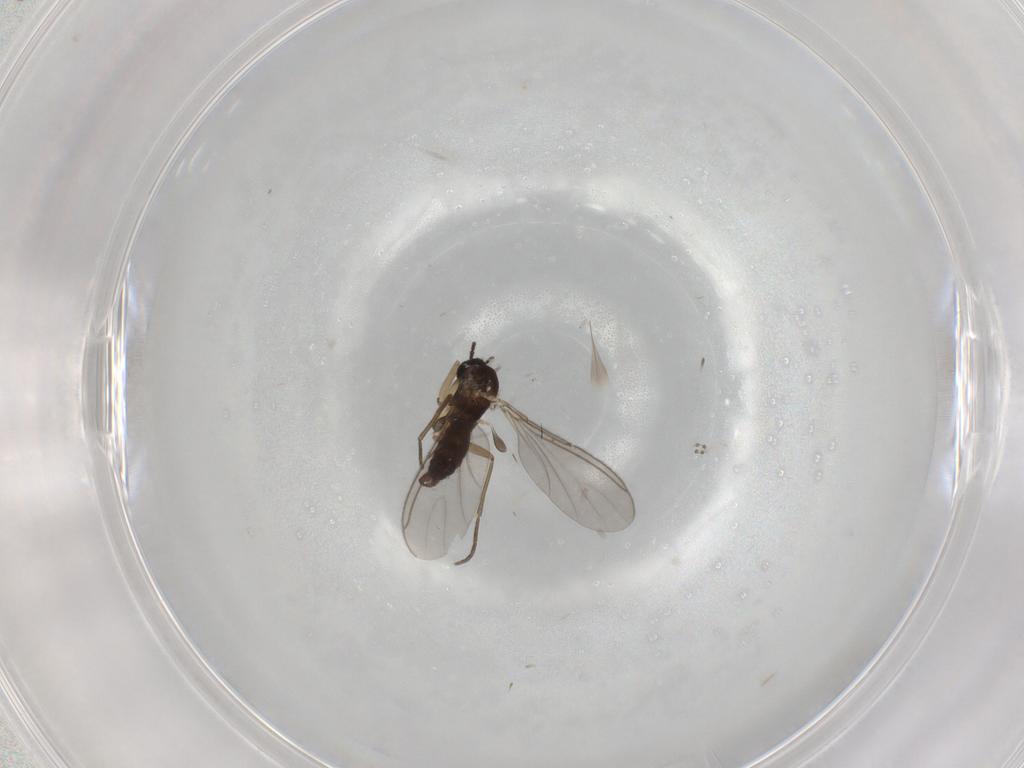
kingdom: Animalia
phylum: Arthropoda
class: Insecta
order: Diptera
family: Sciaridae
